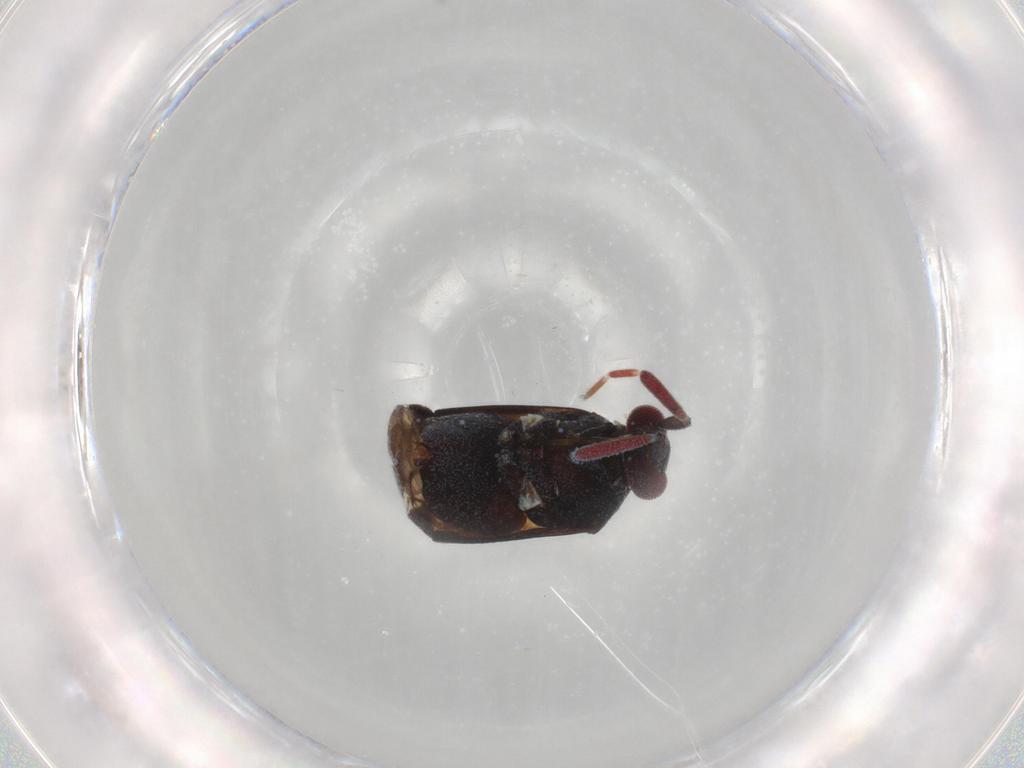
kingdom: Animalia
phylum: Arthropoda
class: Insecta
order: Hemiptera
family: Miridae
